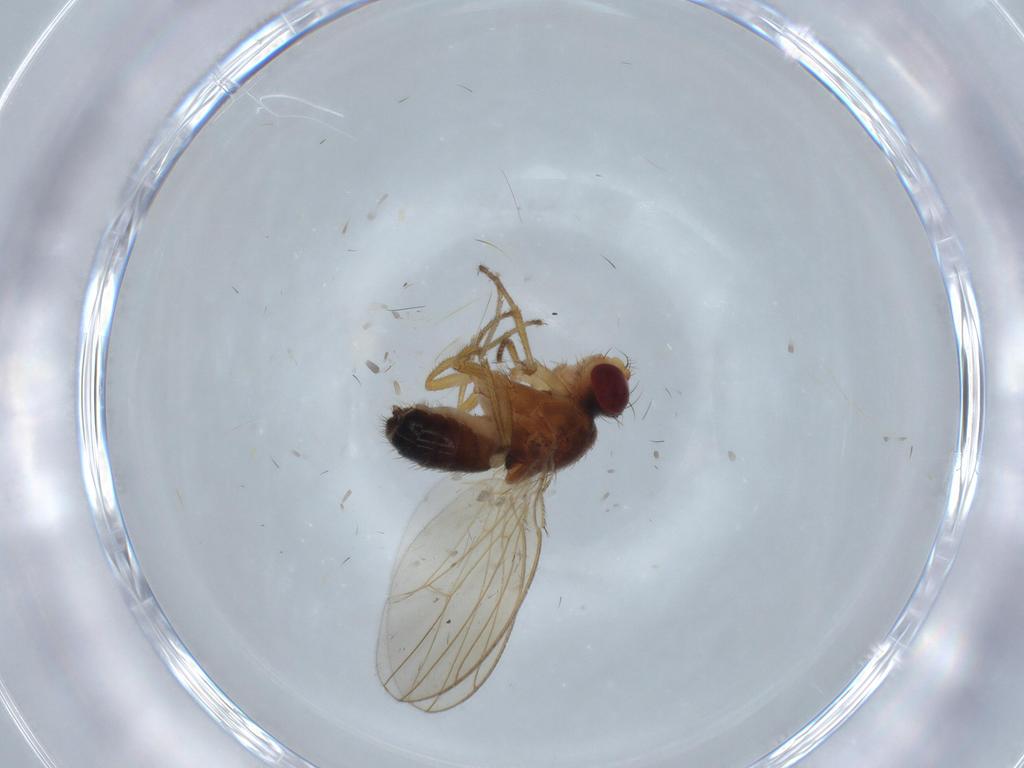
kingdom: Animalia
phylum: Arthropoda
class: Insecta
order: Diptera
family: Drosophilidae
